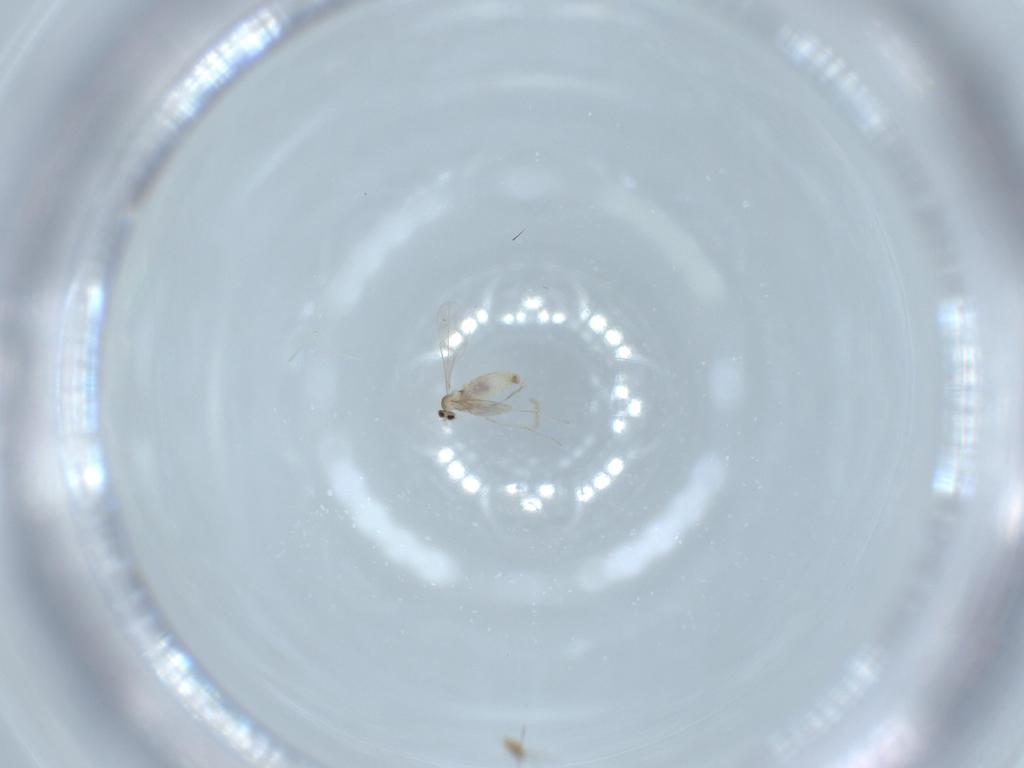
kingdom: Animalia
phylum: Arthropoda
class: Insecta
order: Diptera
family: Cecidomyiidae
